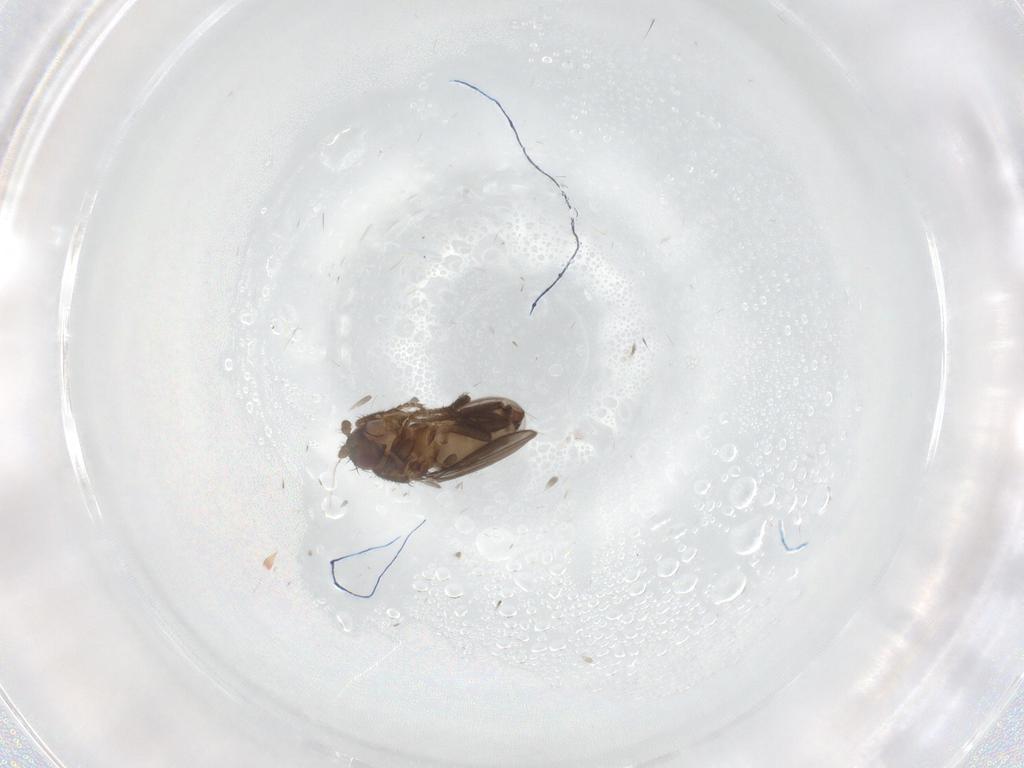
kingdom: Animalia
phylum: Arthropoda
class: Insecta
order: Diptera
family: Sphaeroceridae
